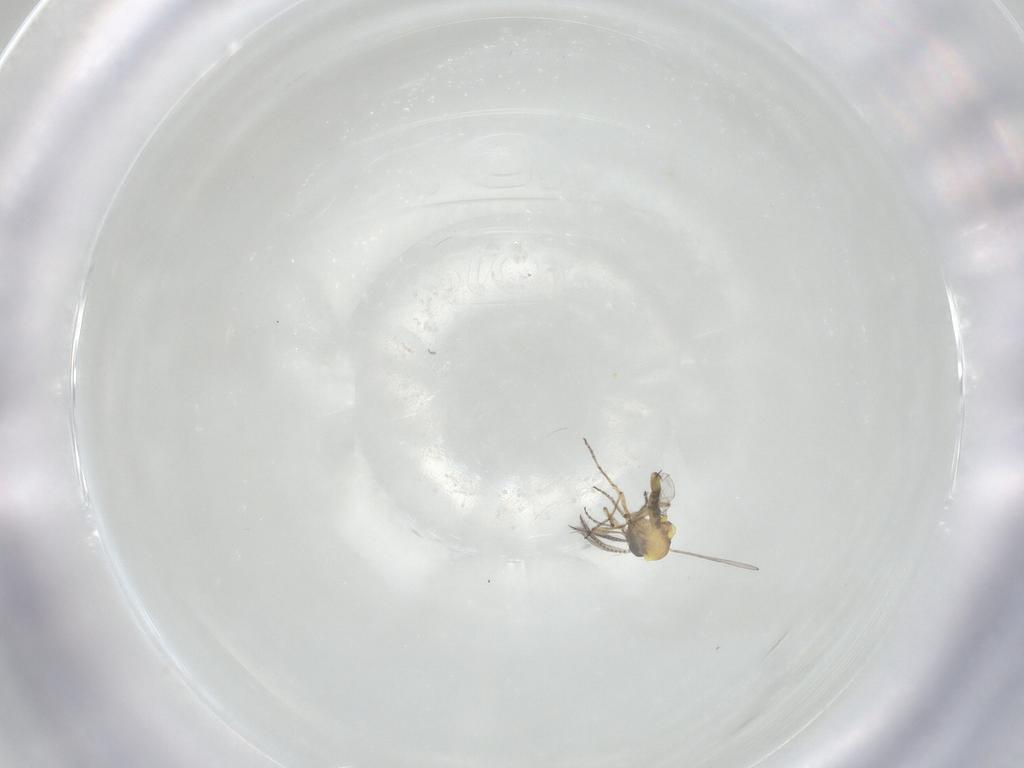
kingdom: Animalia
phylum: Arthropoda
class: Insecta
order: Diptera
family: Ceratopogonidae
